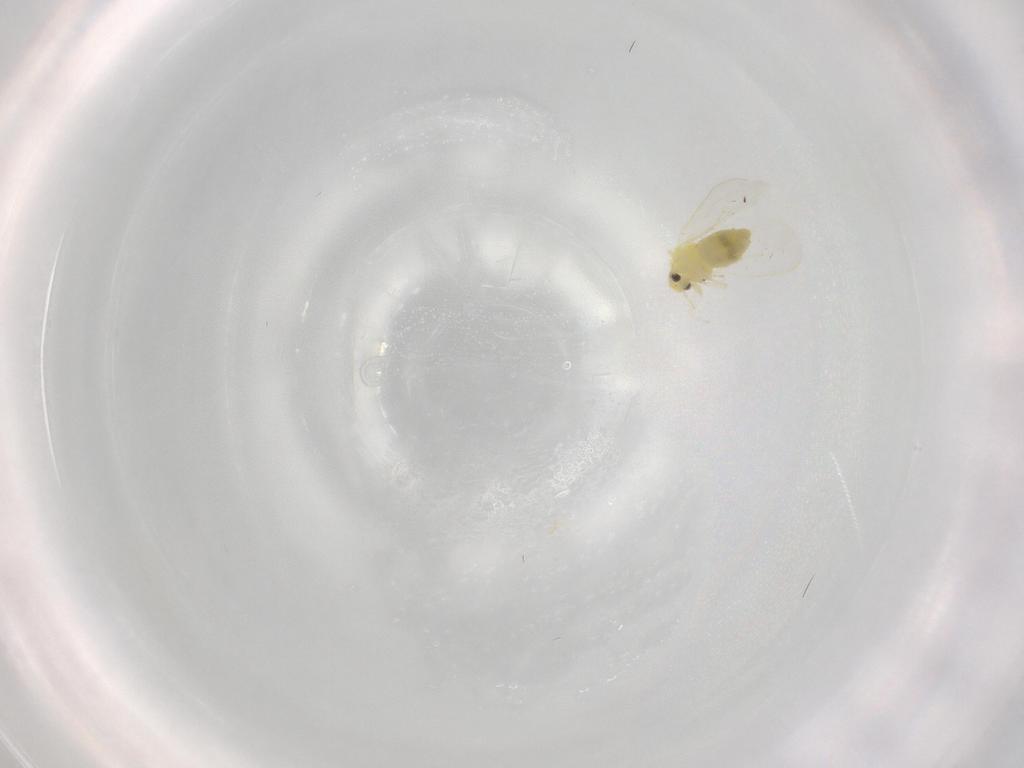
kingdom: Animalia
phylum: Arthropoda
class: Insecta
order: Hemiptera
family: Aleyrodidae
